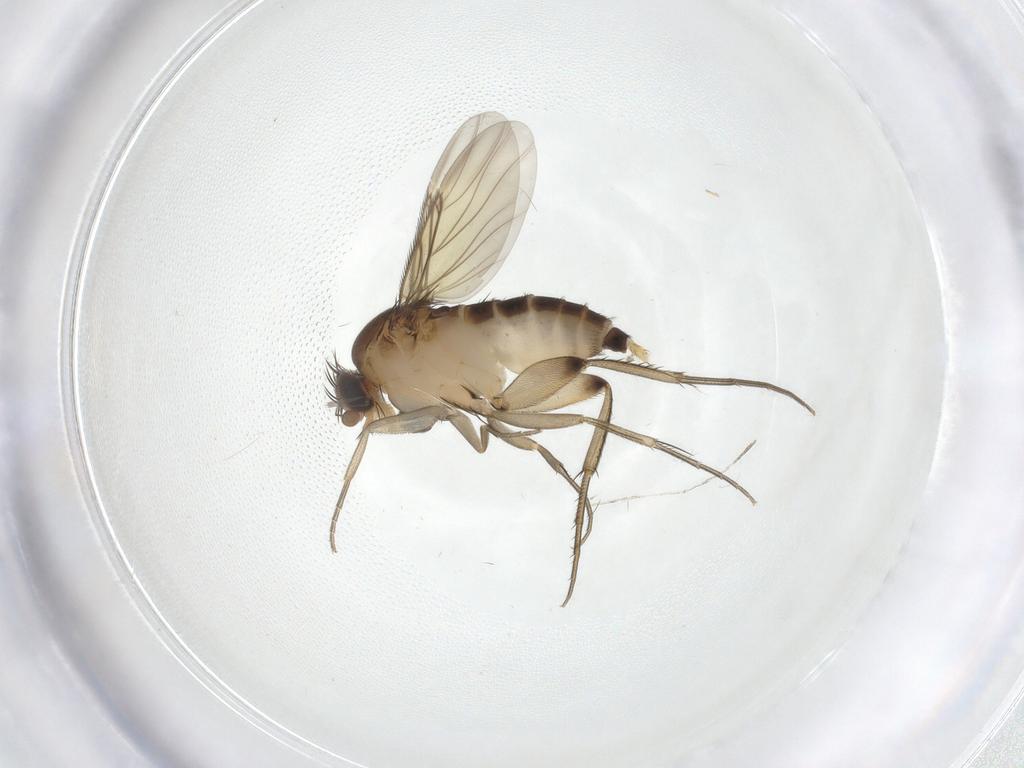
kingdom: Animalia
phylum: Arthropoda
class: Insecta
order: Diptera
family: Phoridae
